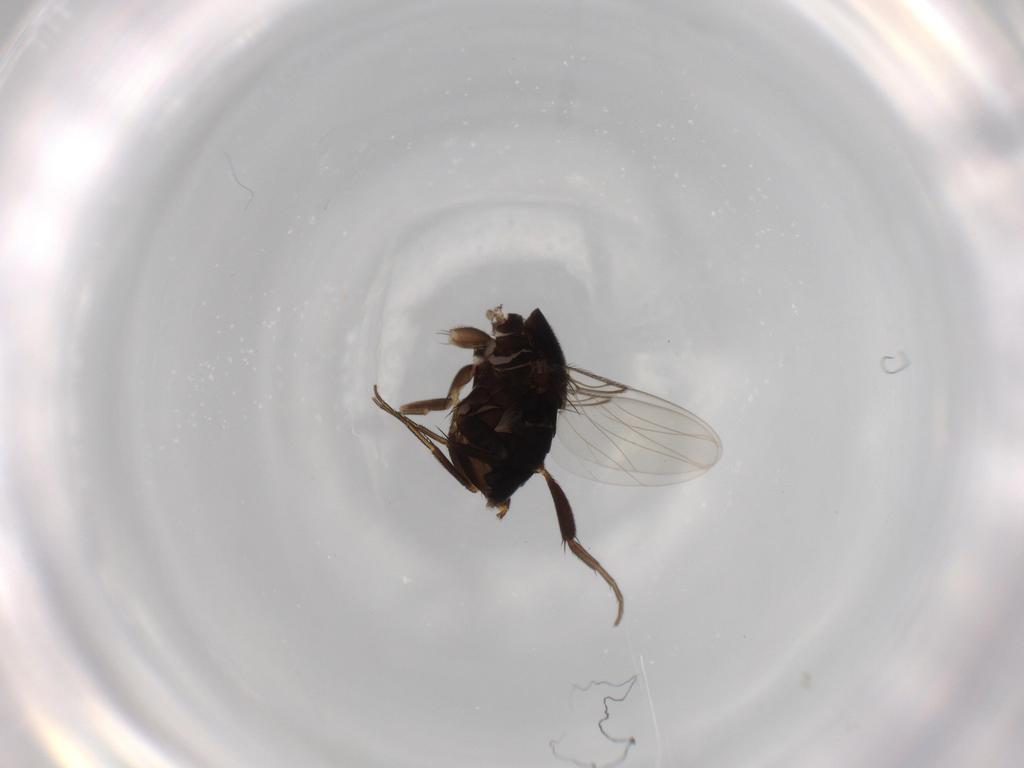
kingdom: Animalia
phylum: Arthropoda
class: Insecta
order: Diptera
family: Phoridae
